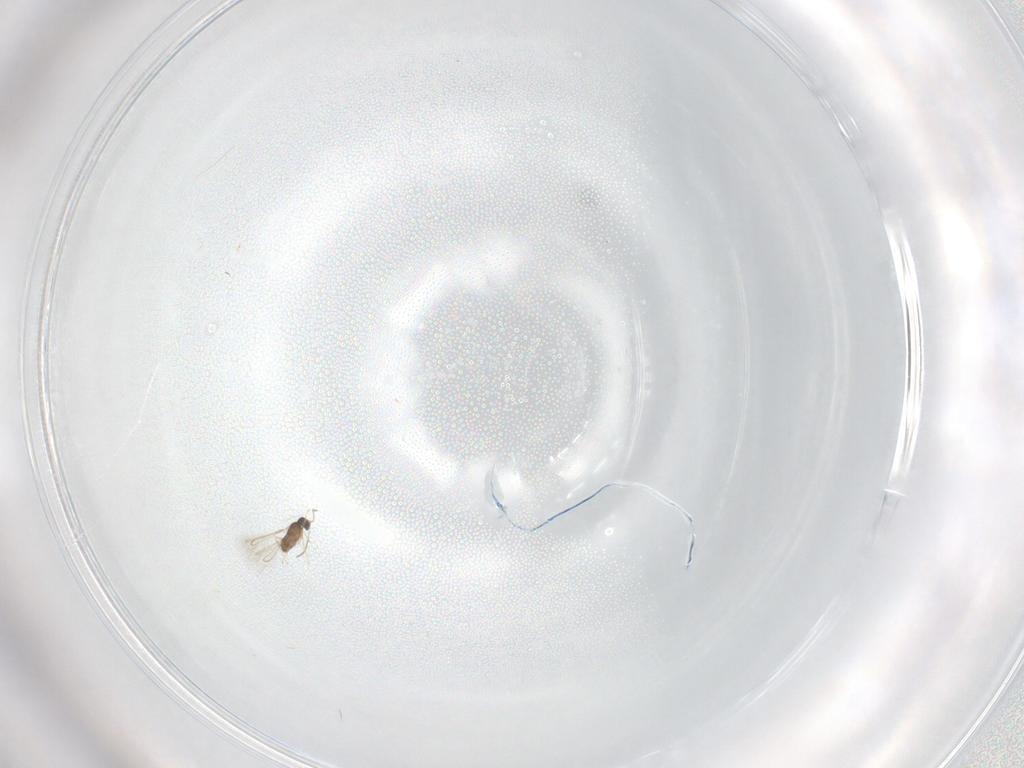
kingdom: Animalia
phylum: Arthropoda
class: Insecta
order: Hymenoptera
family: Mymaridae
